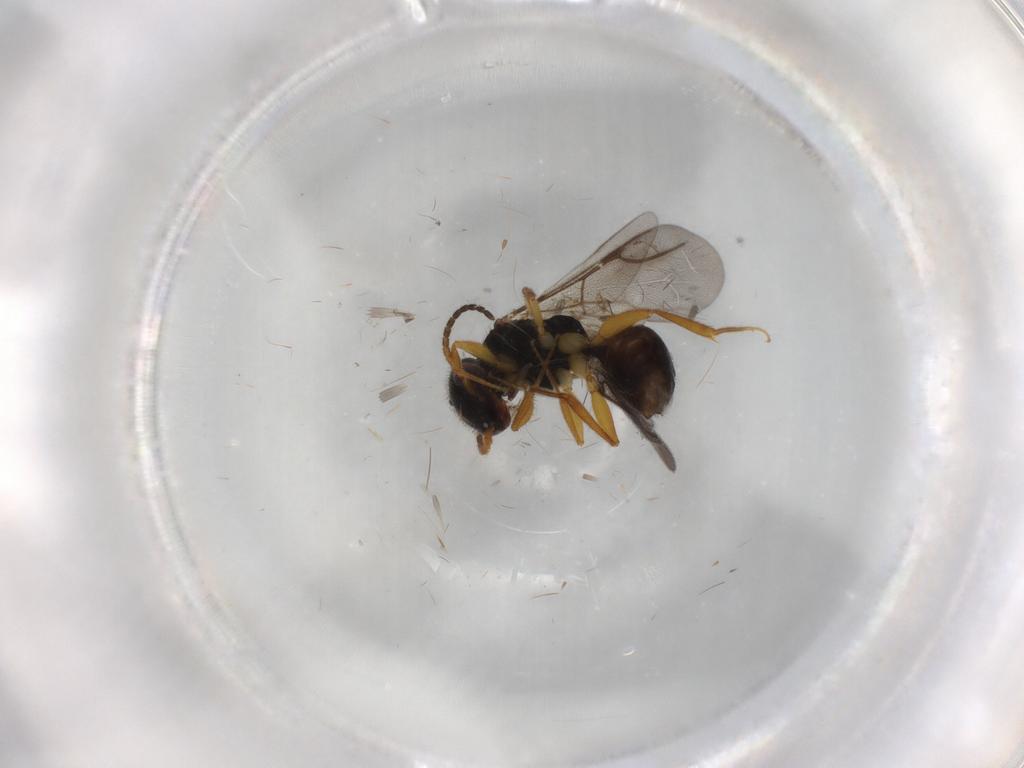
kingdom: Animalia
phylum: Arthropoda
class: Insecta
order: Hymenoptera
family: Bethylidae
